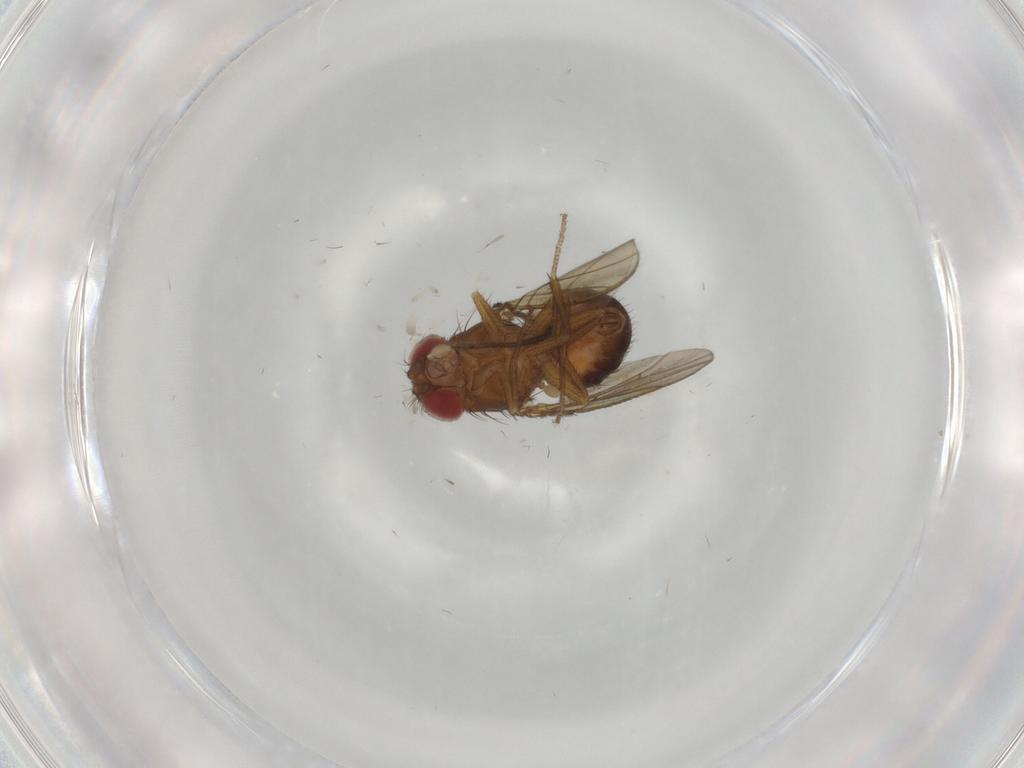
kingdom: Animalia
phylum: Arthropoda
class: Insecta
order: Diptera
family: Drosophilidae
